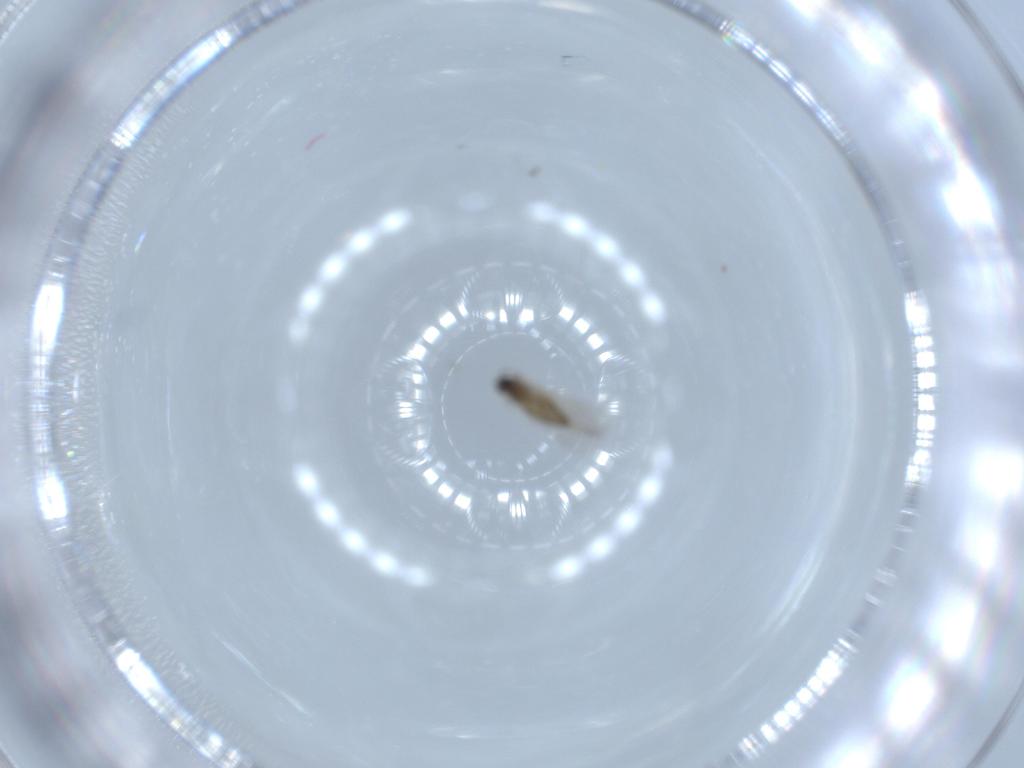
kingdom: Animalia
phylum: Arthropoda
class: Insecta
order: Diptera
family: Cecidomyiidae
